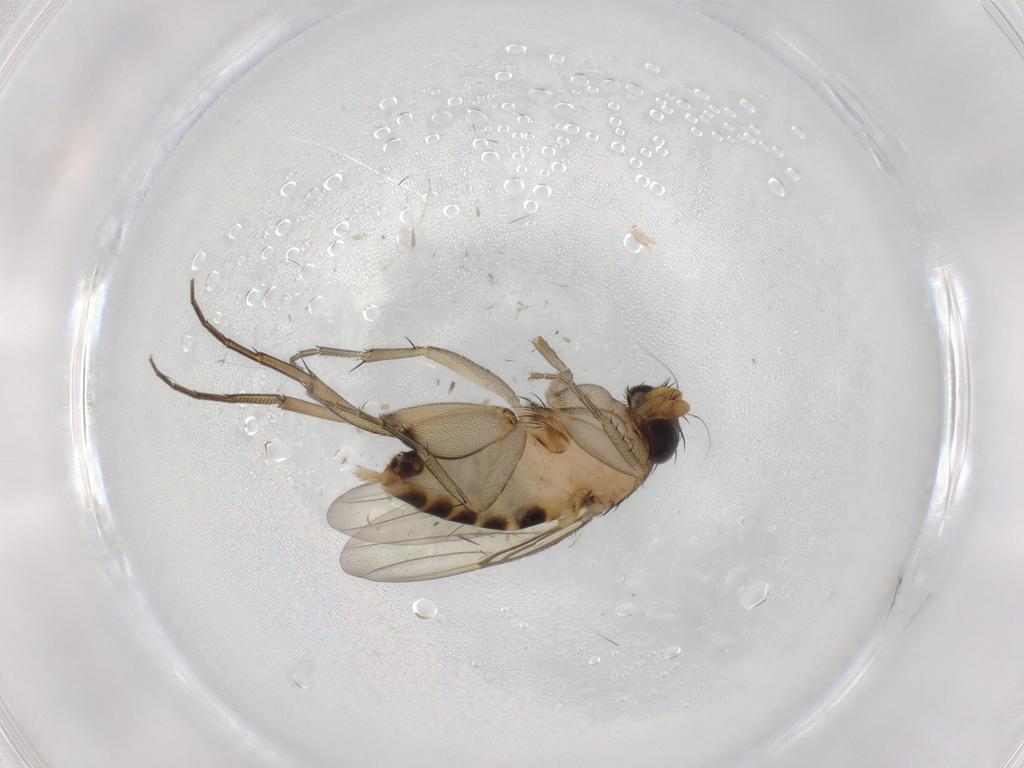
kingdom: Animalia
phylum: Arthropoda
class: Insecta
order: Diptera
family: Phoridae
